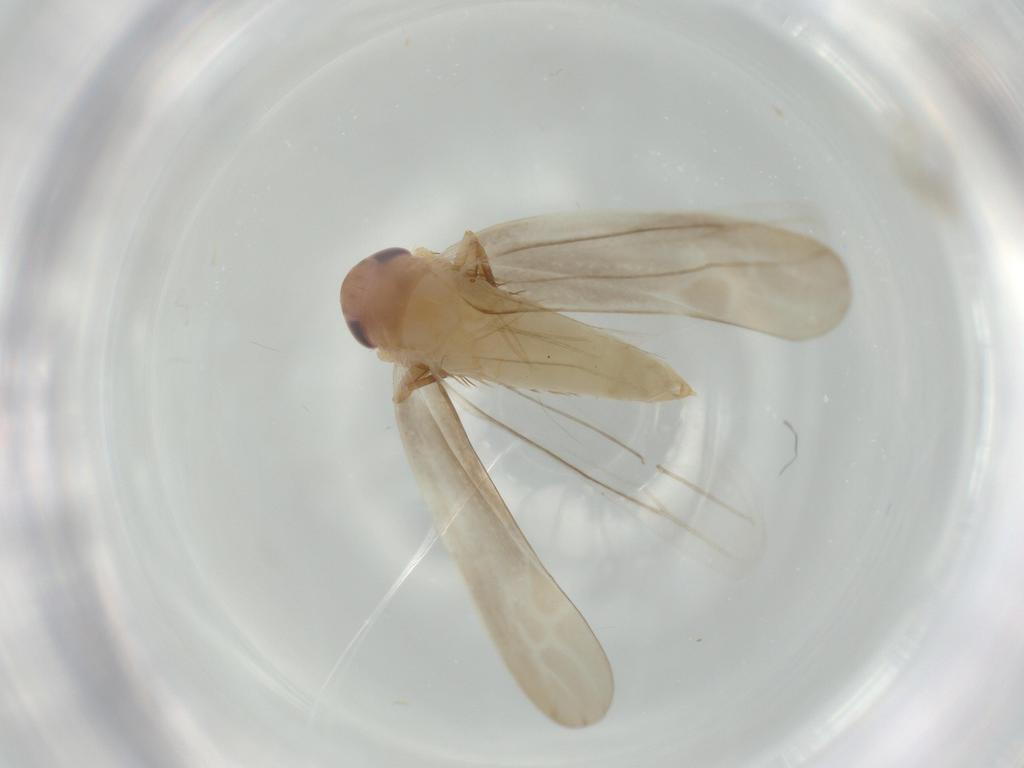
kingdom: Animalia
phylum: Arthropoda
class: Insecta
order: Hemiptera
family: Cicadellidae
